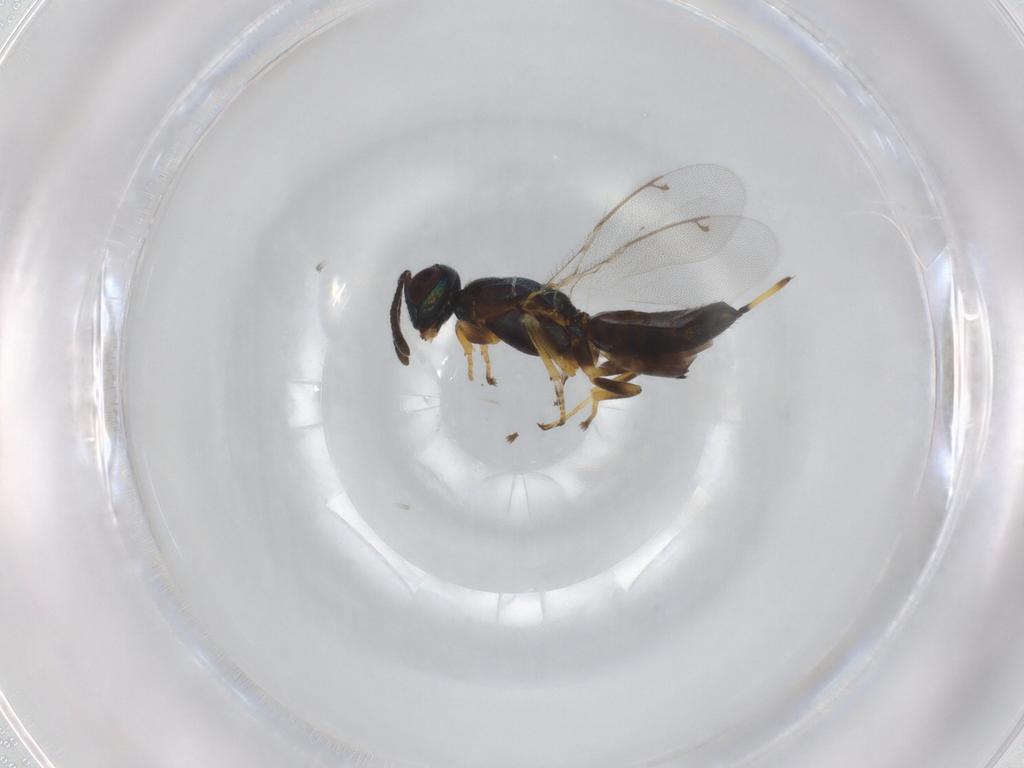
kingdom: Animalia
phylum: Arthropoda
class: Insecta
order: Hymenoptera
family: Eupelmidae
